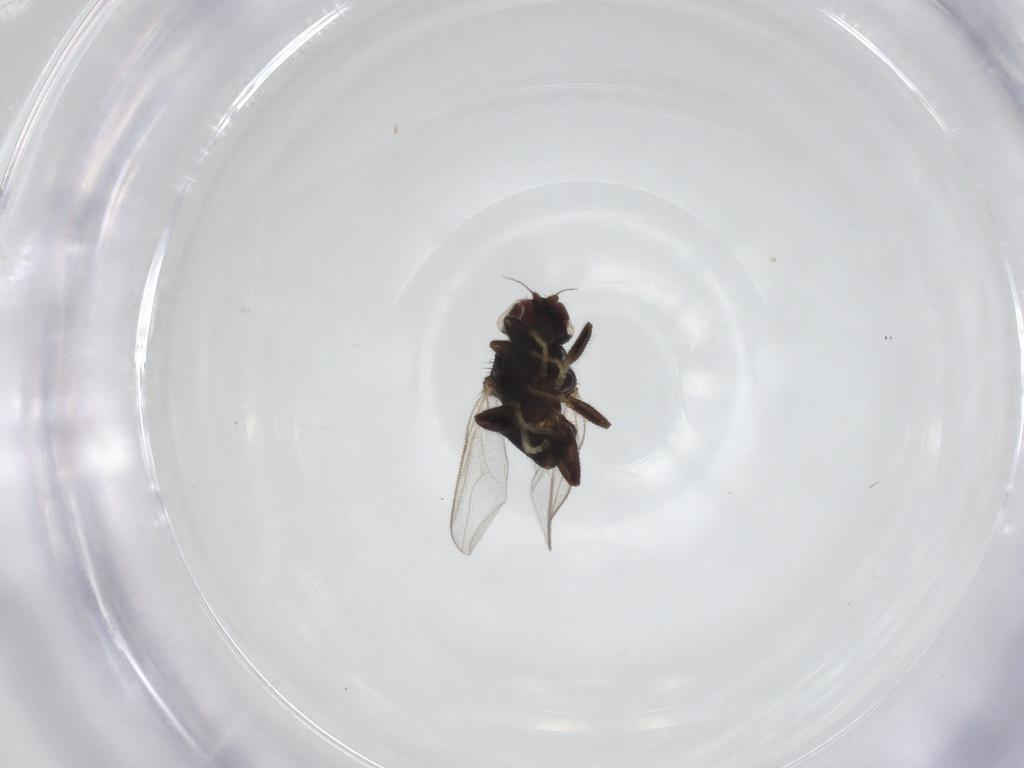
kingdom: Animalia
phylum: Arthropoda
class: Insecta
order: Diptera
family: Chloropidae
